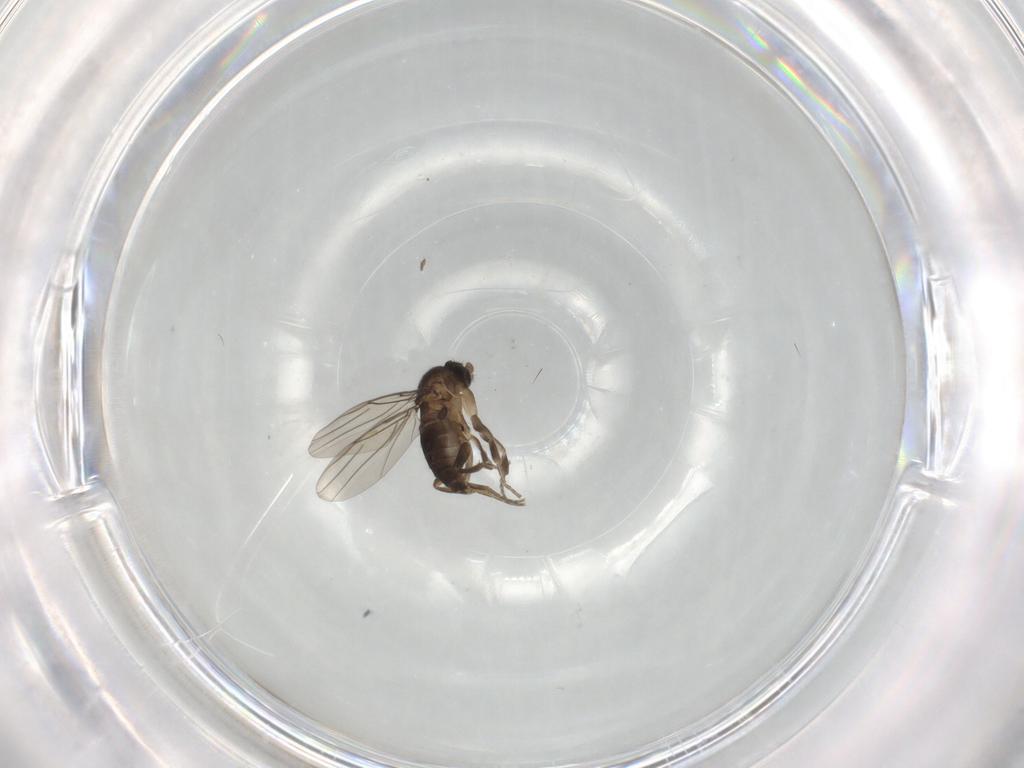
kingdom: Animalia
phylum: Arthropoda
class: Insecta
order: Diptera
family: Phoridae
